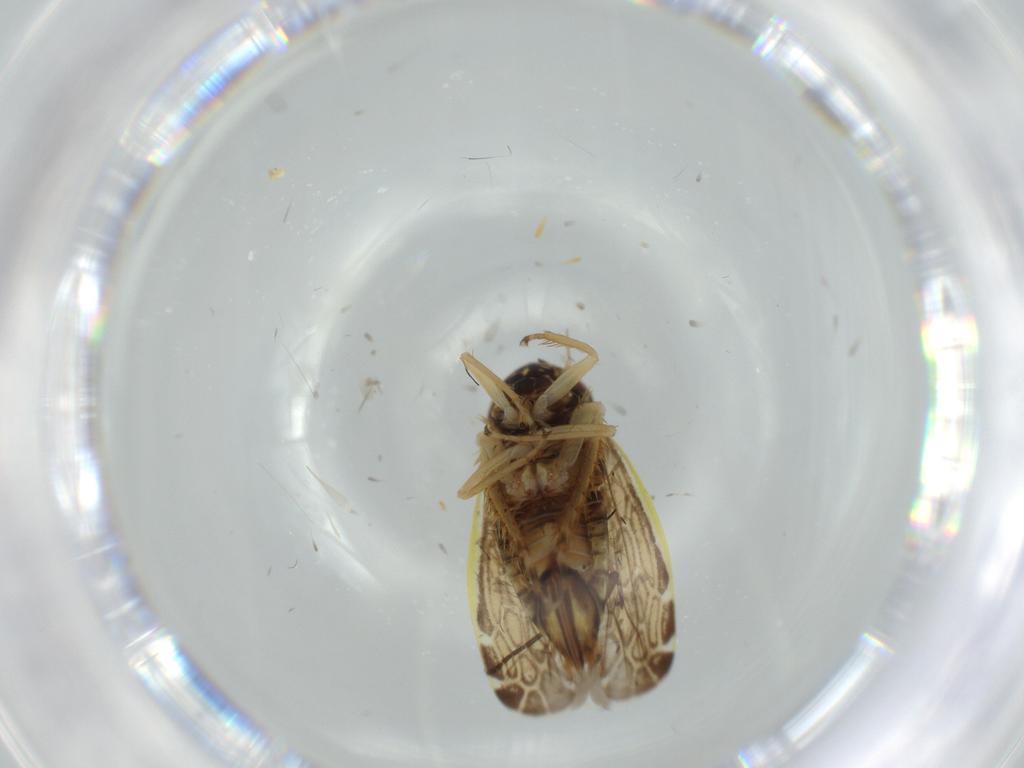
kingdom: Animalia
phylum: Arthropoda
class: Insecta
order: Hemiptera
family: Cicadellidae
